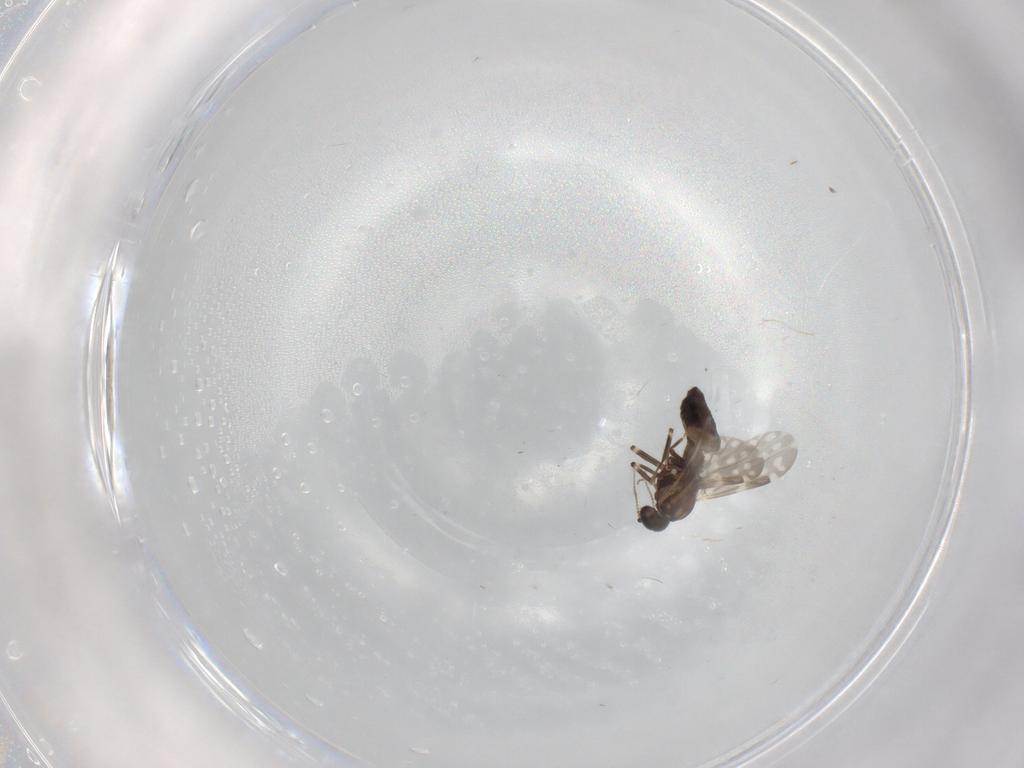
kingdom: Animalia
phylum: Arthropoda
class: Insecta
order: Diptera
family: Ceratopogonidae
